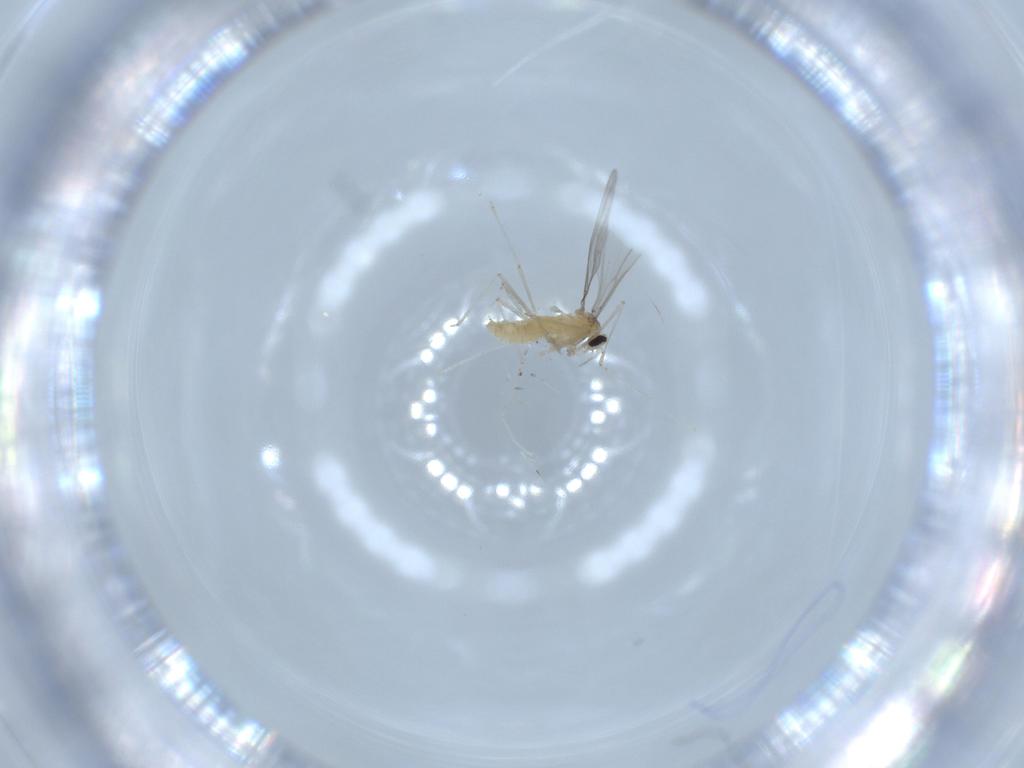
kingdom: Animalia
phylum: Arthropoda
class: Insecta
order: Diptera
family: Cecidomyiidae
